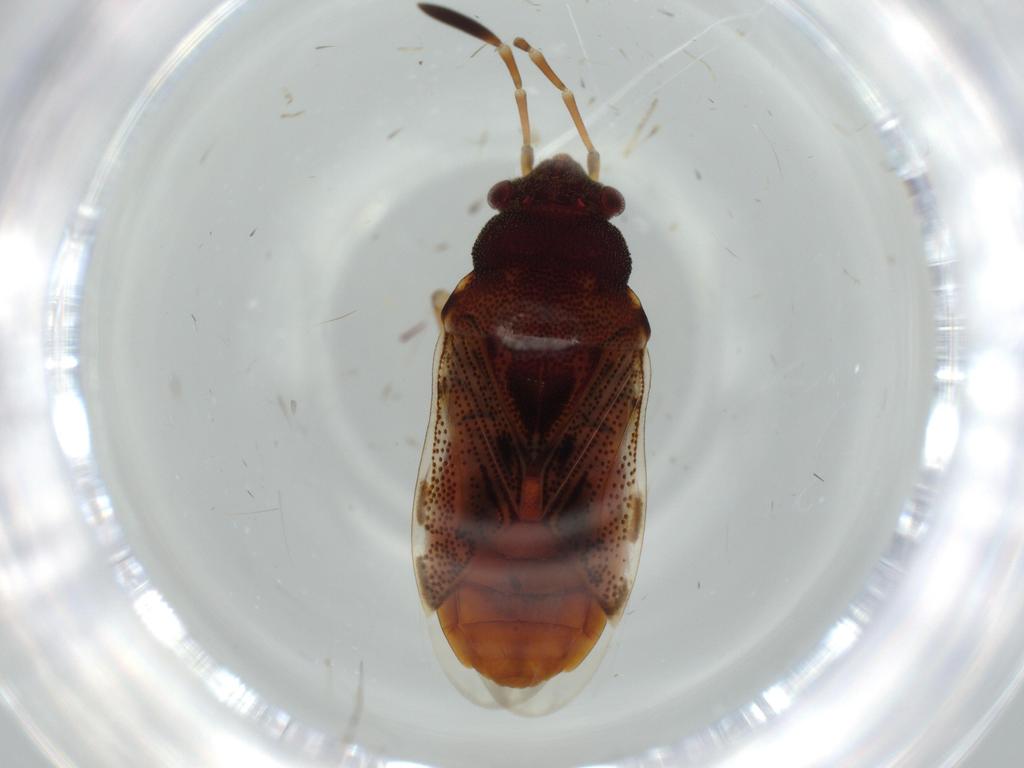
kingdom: Animalia
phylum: Arthropoda
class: Insecta
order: Hemiptera
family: Rhyparochromidae
